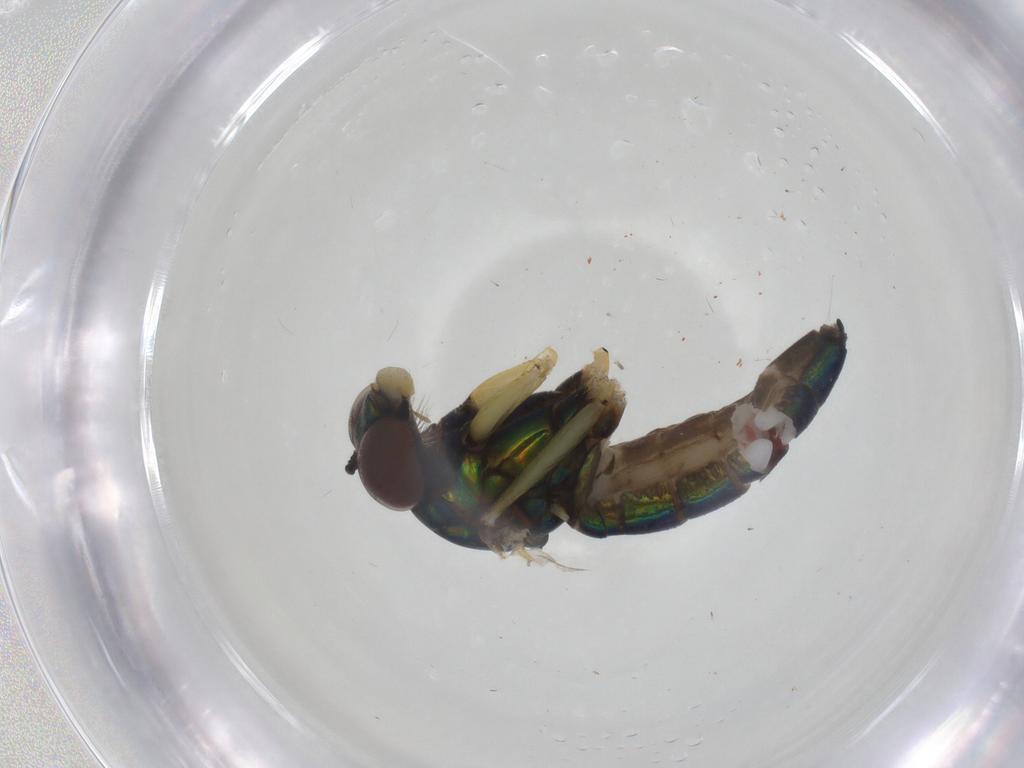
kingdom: Animalia
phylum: Arthropoda
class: Insecta
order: Diptera
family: Dolichopodidae
